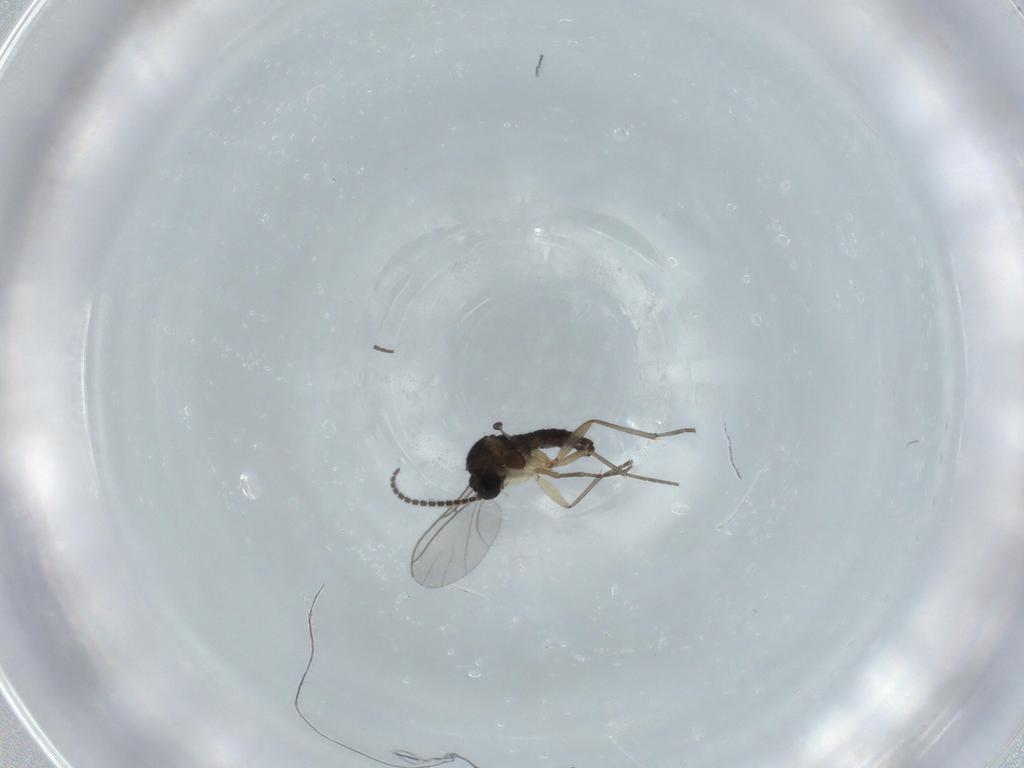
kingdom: Animalia
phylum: Arthropoda
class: Insecta
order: Diptera
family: Sciaridae
